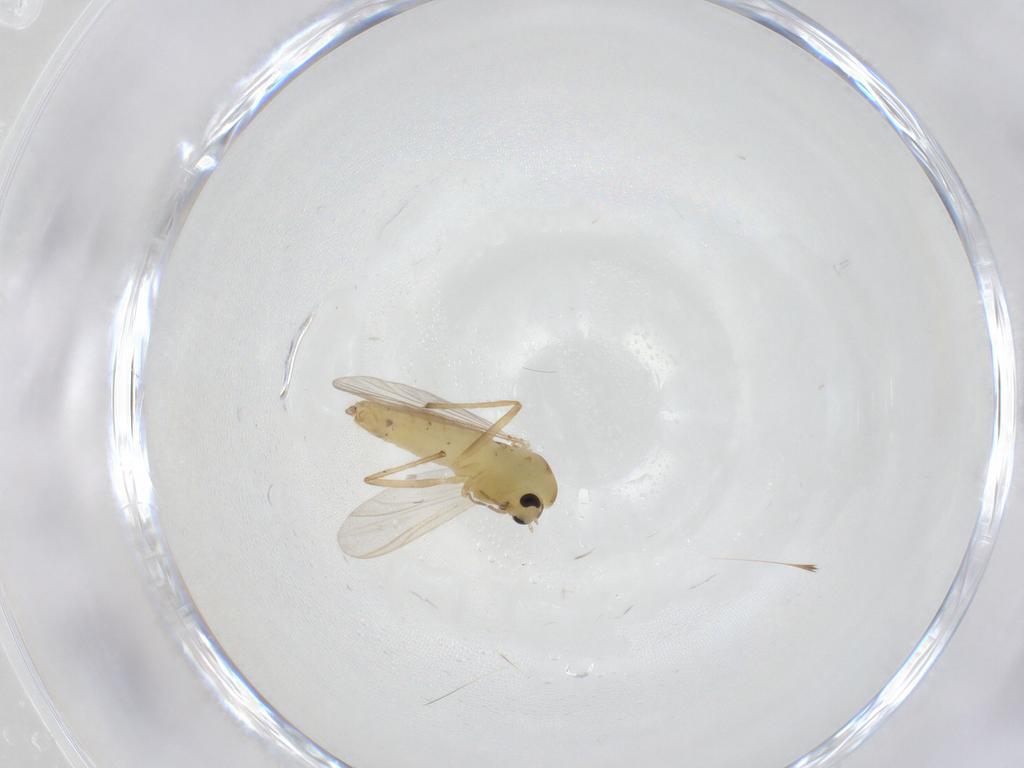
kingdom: Animalia
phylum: Arthropoda
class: Insecta
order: Diptera
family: Chironomidae
